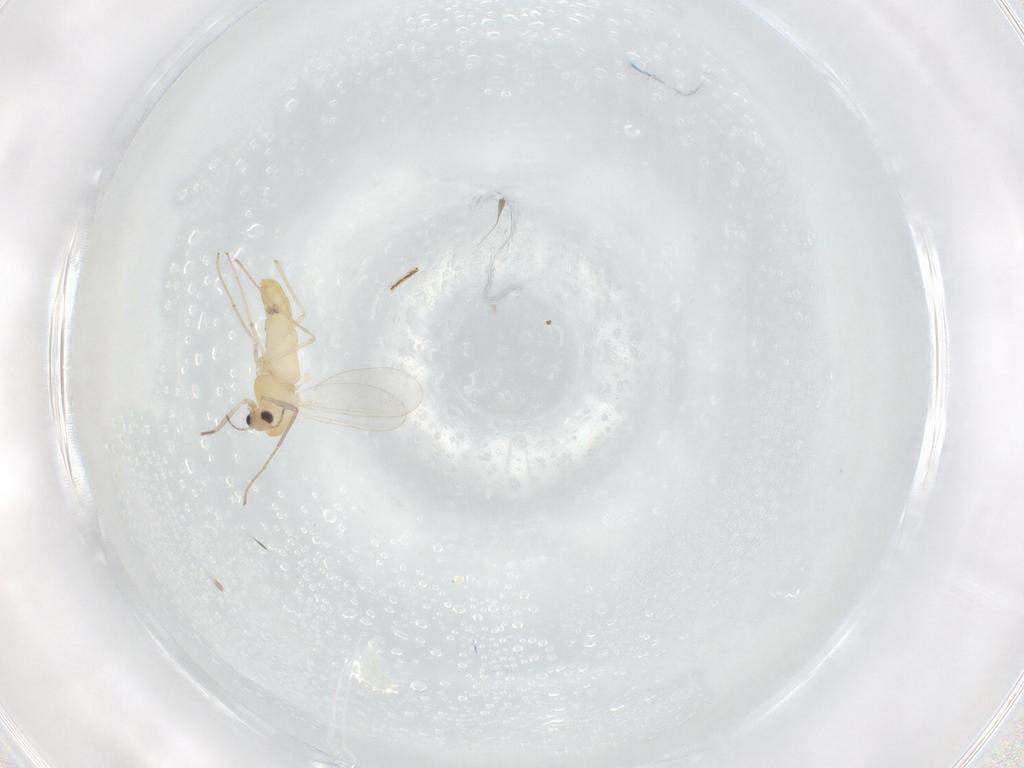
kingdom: Animalia
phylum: Arthropoda
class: Insecta
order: Diptera
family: Chironomidae
